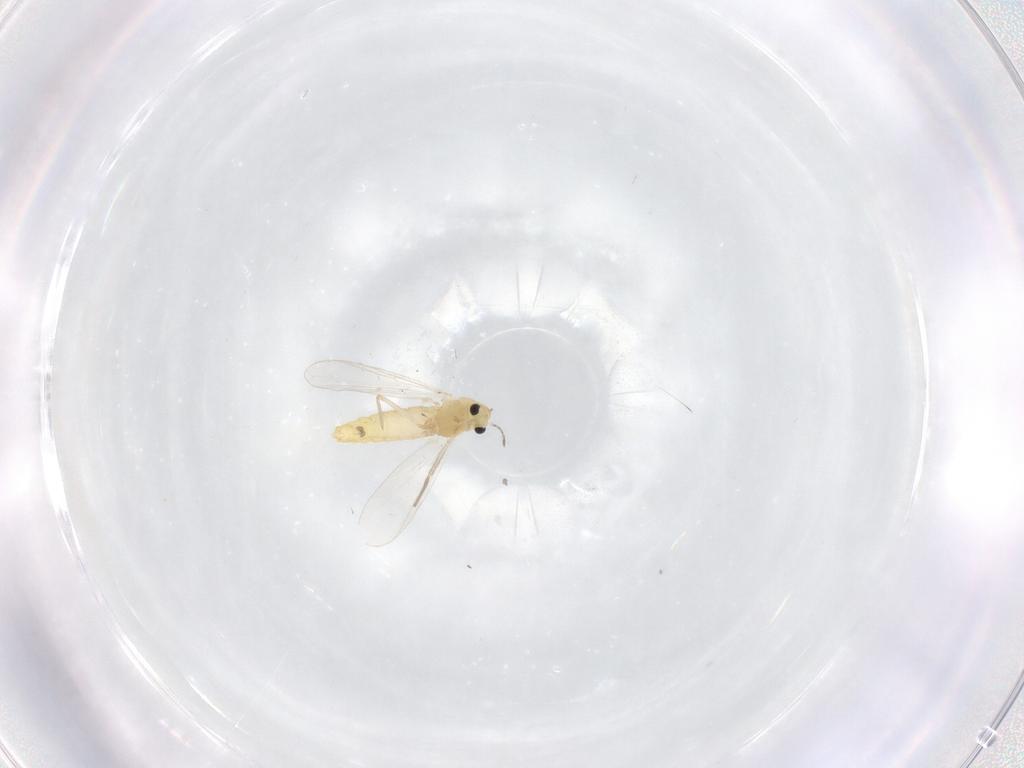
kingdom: Animalia
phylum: Arthropoda
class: Insecta
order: Diptera
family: Chironomidae
